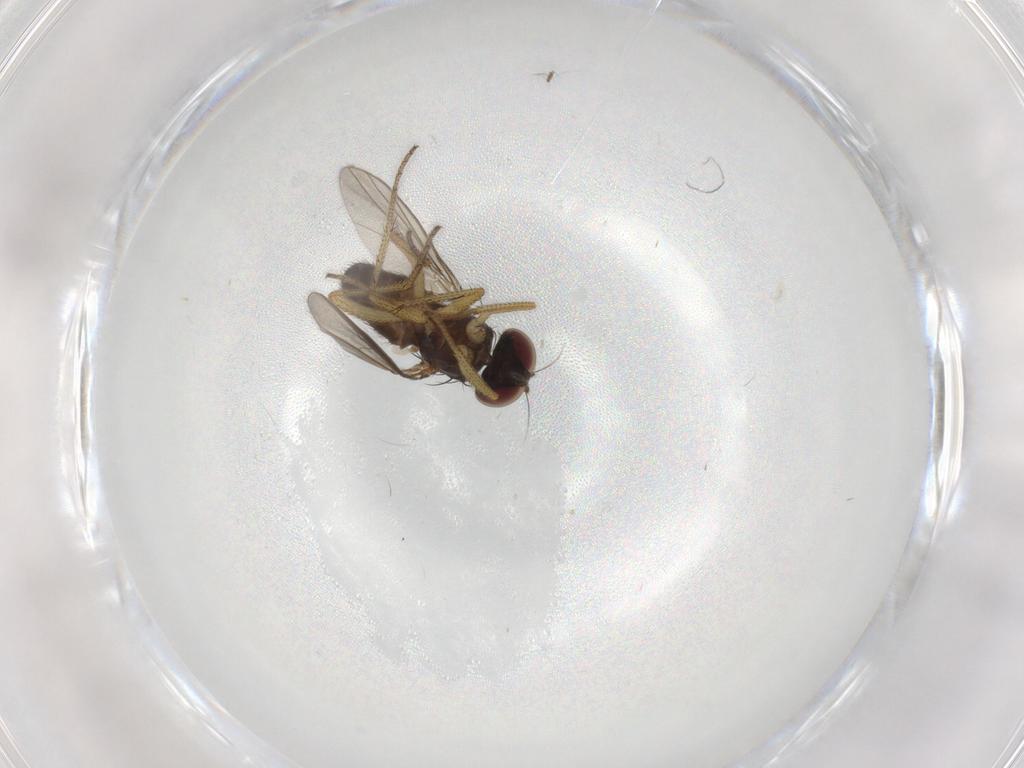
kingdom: Animalia
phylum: Arthropoda
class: Insecta
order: Diptera
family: Dolichopodidae
